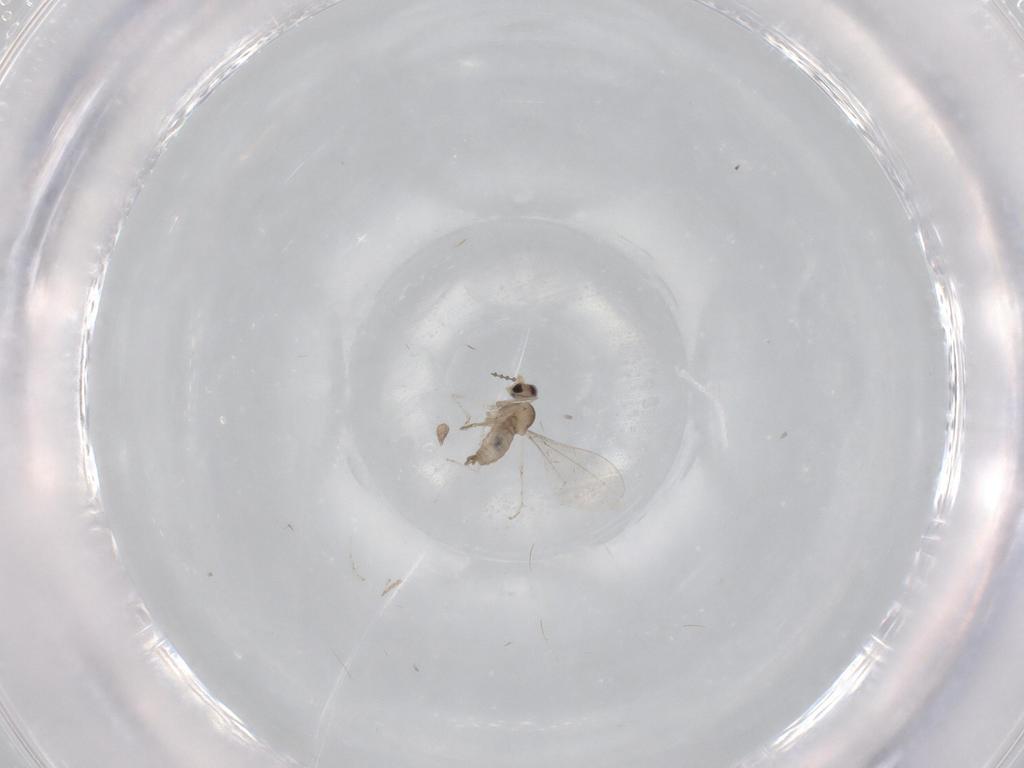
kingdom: Animalia
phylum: Arthropoda
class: Insecta
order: Diptera
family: Cecidomyiidae
